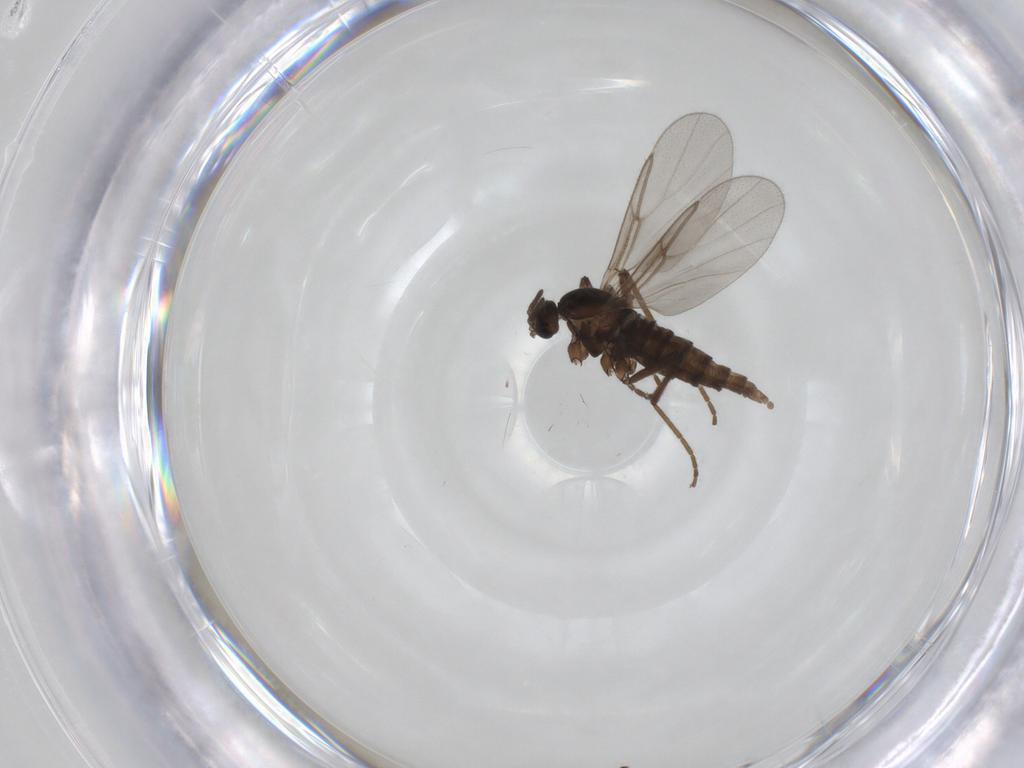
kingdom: Animalia
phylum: Arthropoda
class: Insecta
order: Diptera
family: Cecidomyiidae
